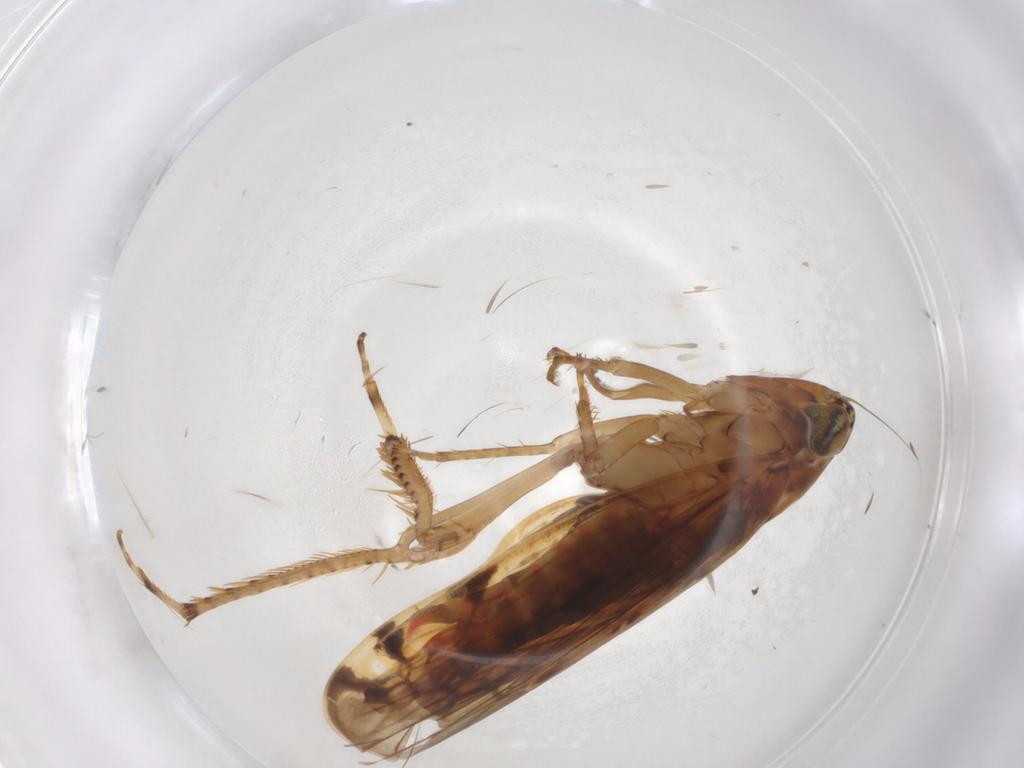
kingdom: Animalia
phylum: Arthropoda
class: Insecta
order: Hemiptera
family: Cicadellidae
